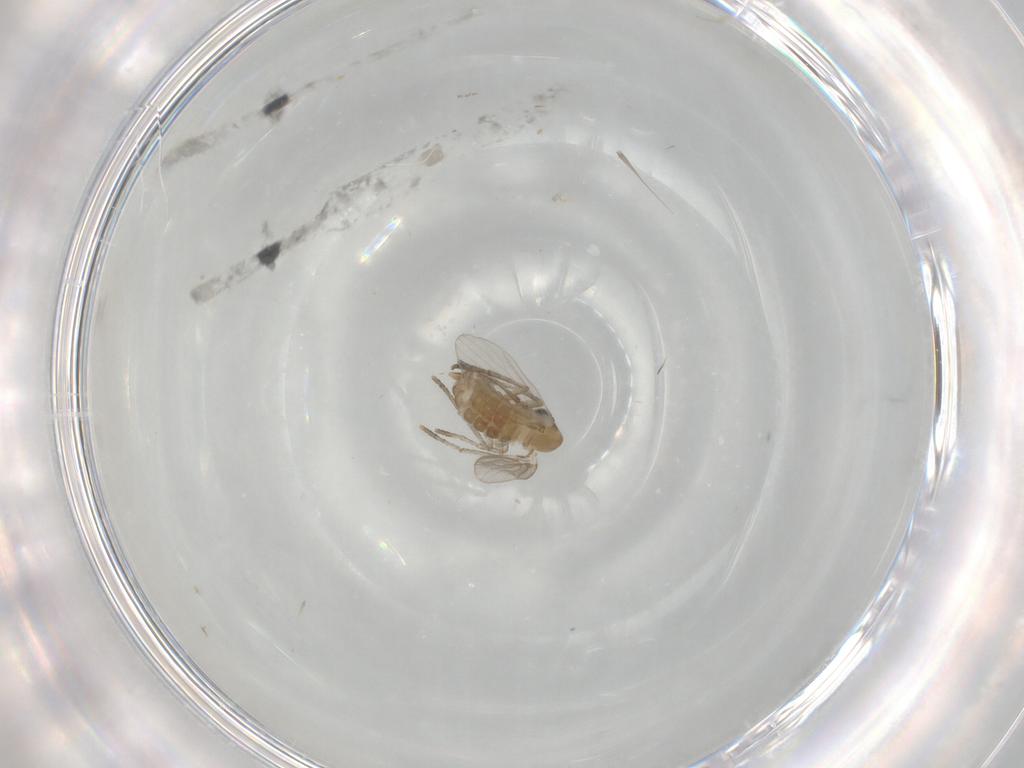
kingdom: Animalia
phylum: Arthropoda
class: Insecta
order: Diptera
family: Psychodidae
